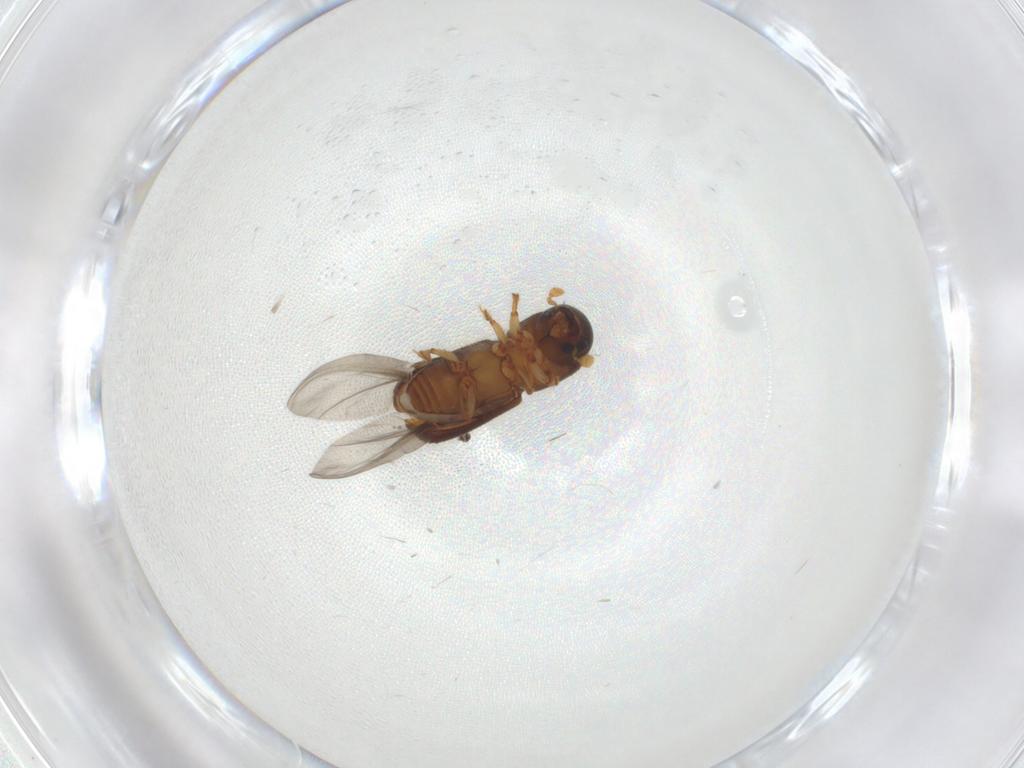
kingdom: Animalia
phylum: Arthropoda
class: Insecta
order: Coleoptera
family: Curculionidae
